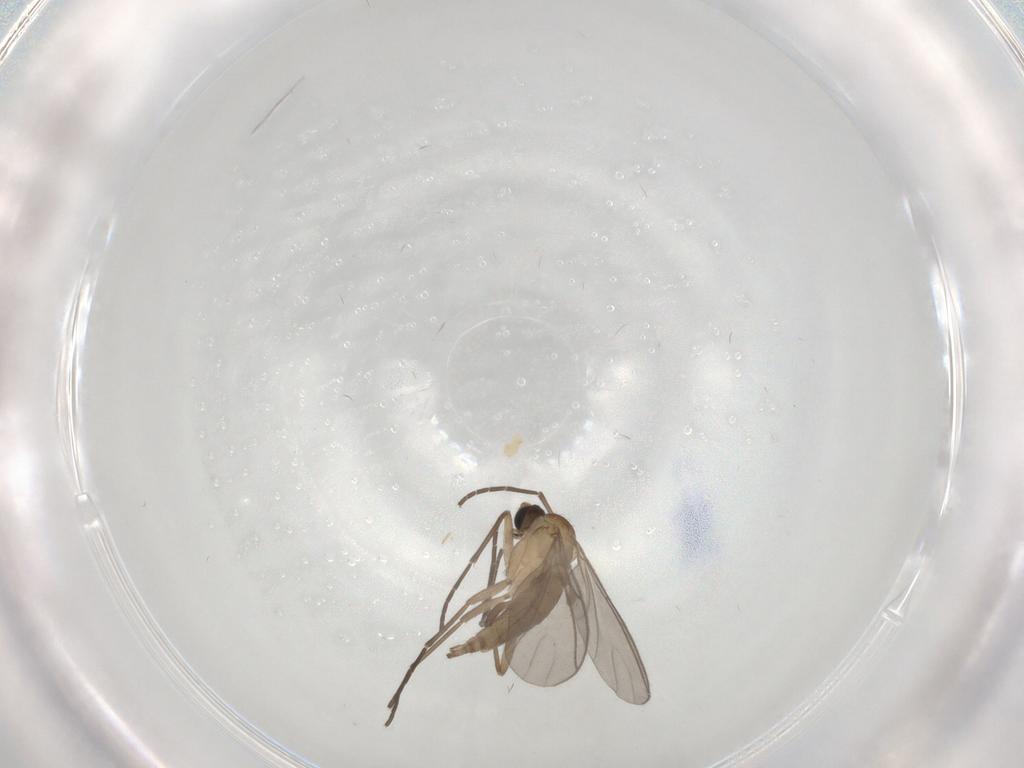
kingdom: Animalia
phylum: Arthropoda
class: Insecta
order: Diptera
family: Sciaridae
